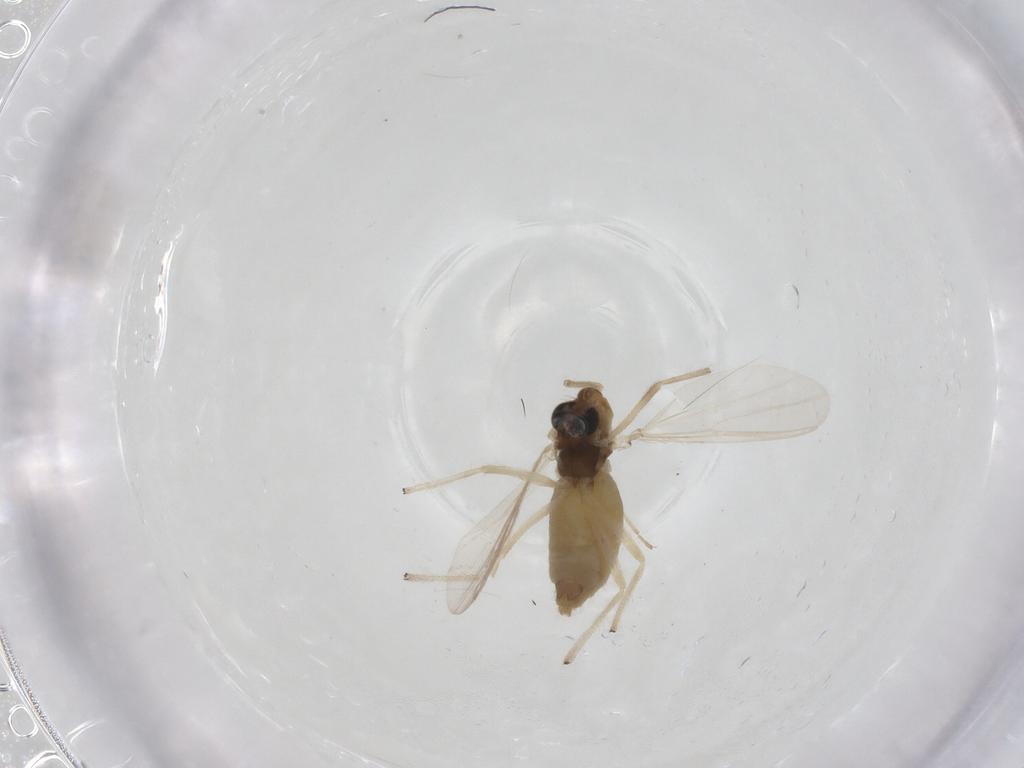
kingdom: Animalia
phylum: Arthropoda
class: Insecta
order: Diptera
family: Chironomidae
